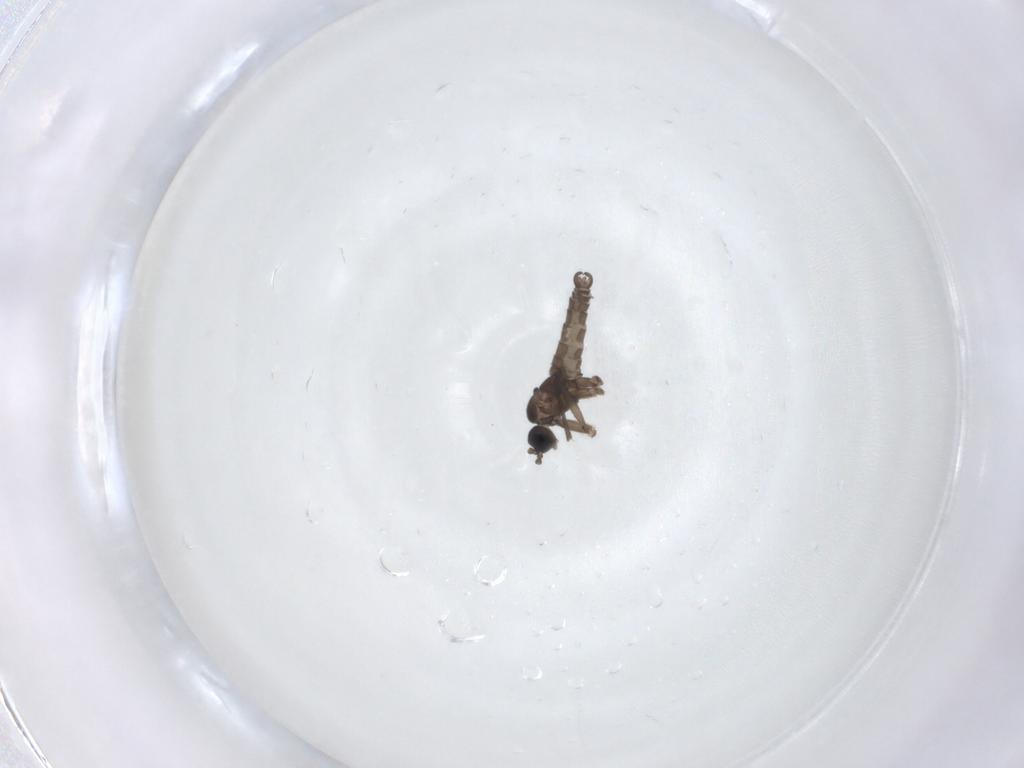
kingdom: Animalia
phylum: Arthropoda
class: Insecta
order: Diptera
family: Sciaridae
